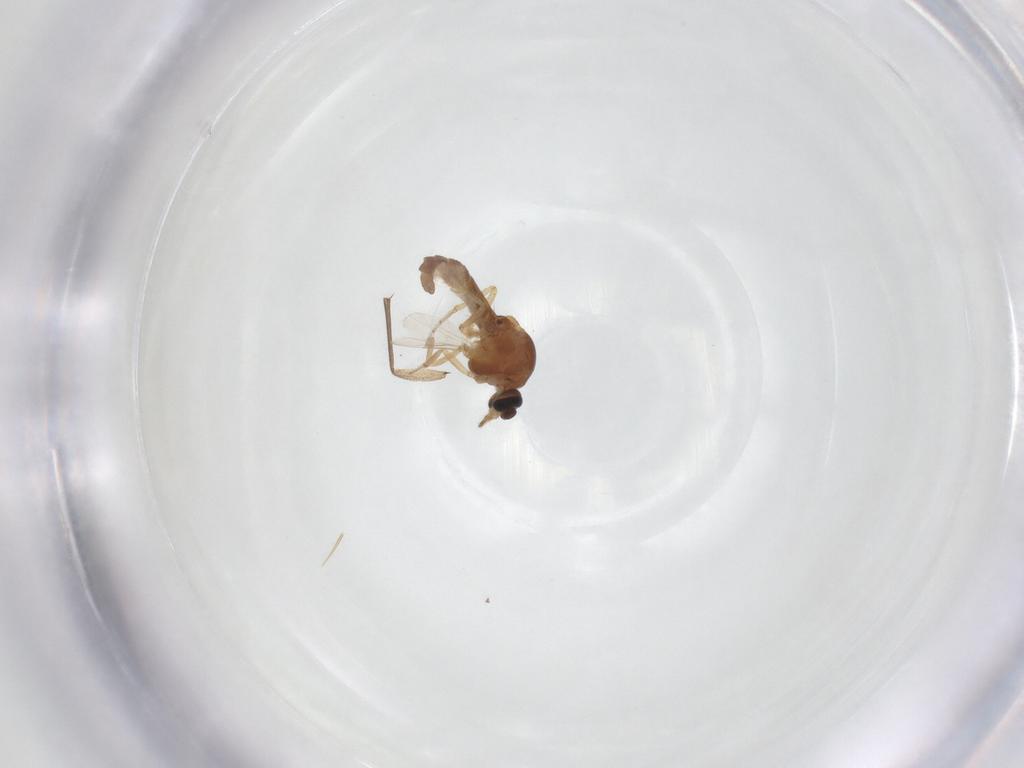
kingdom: Animalia
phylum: Arthropoda
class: Insecta
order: Diptera
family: Ceratopogonidae
